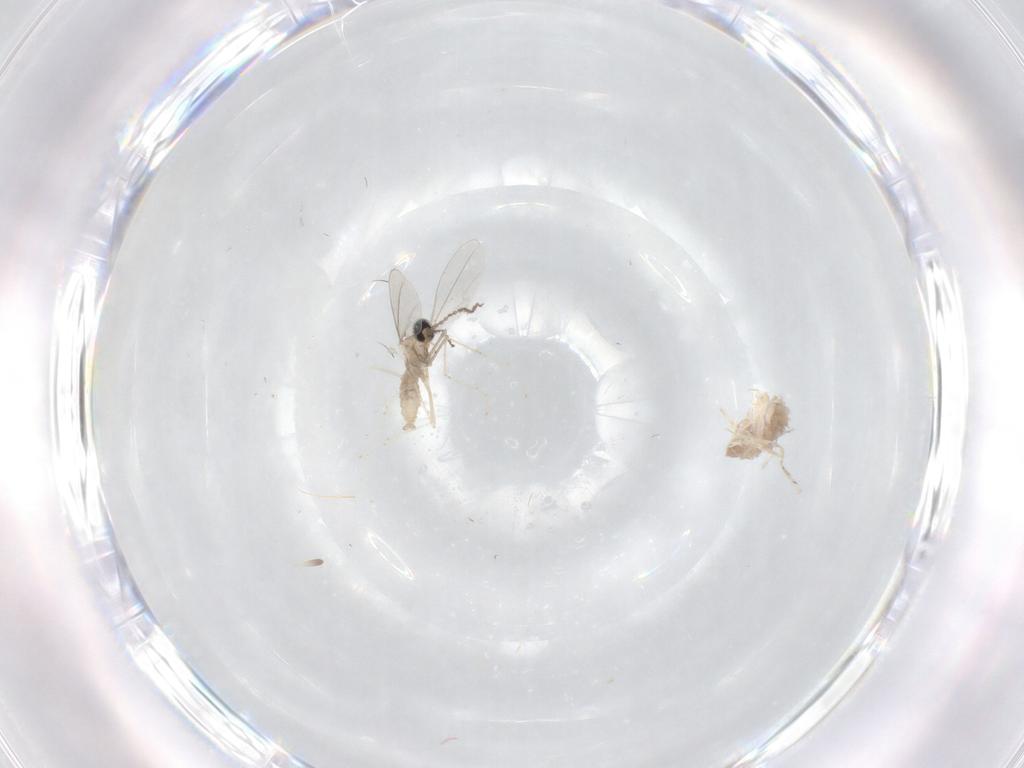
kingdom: Animalia
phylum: Arthropoda
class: Insecta
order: Diptera
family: Cecidomyiidae
